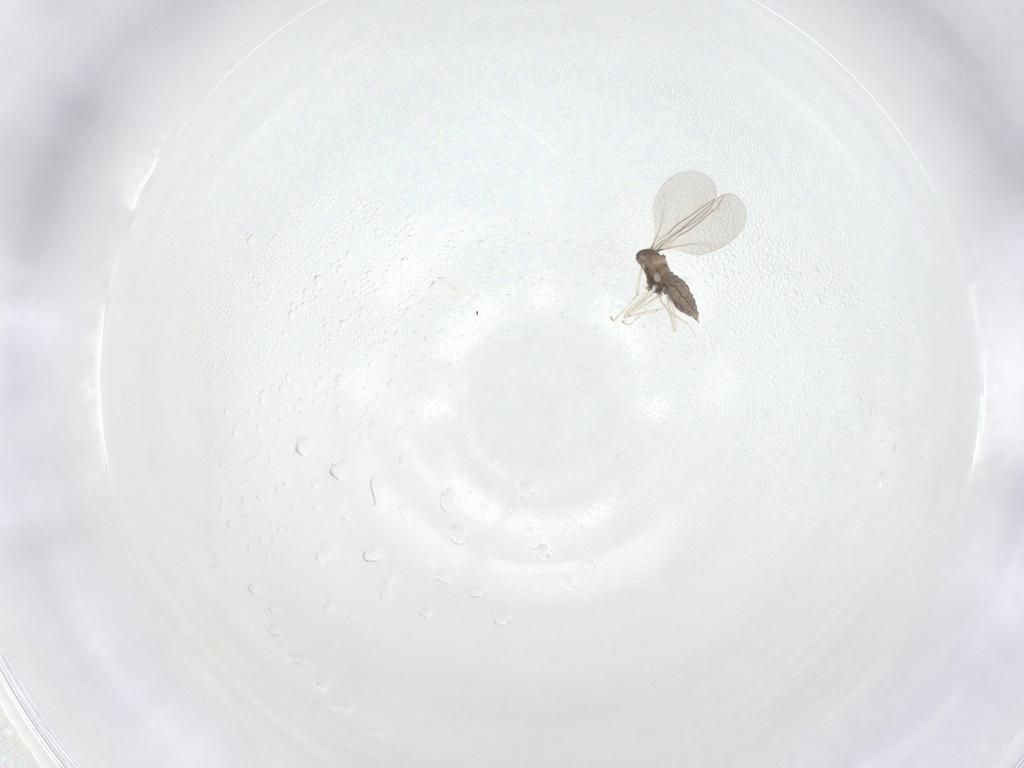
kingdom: Animalia
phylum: Arthropoda
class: Insecta
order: Diptera
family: Cecidomyiidae
